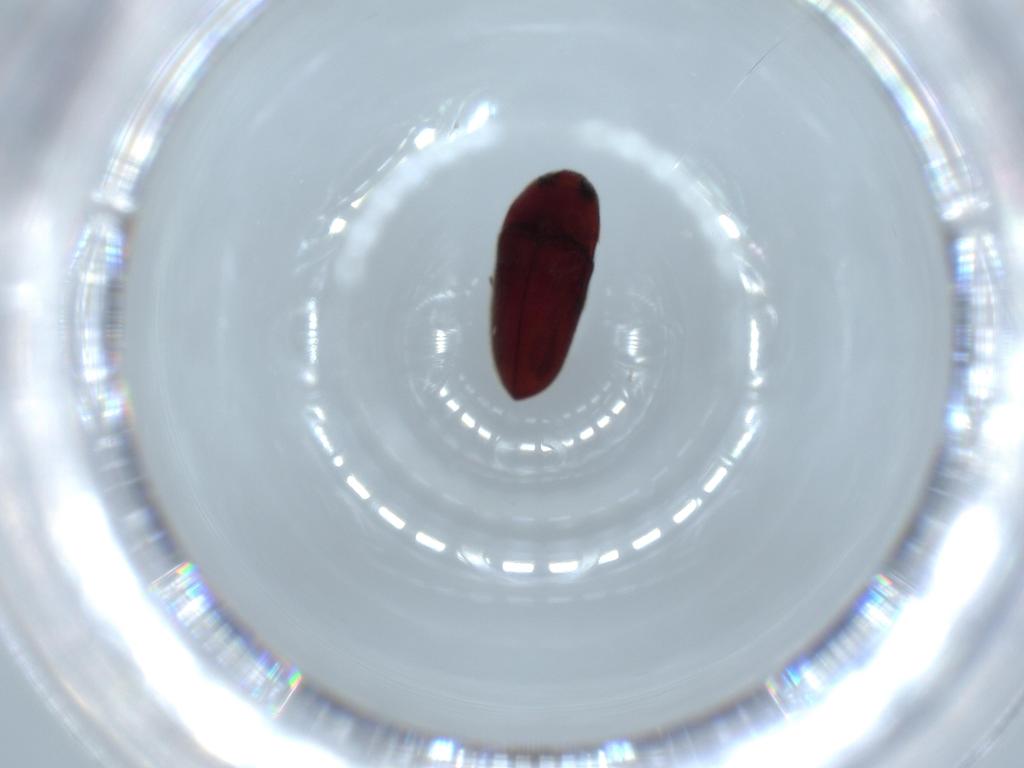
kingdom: Animalia
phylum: Arthropoda
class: Insecta
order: Coleoptera
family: Throscidae
